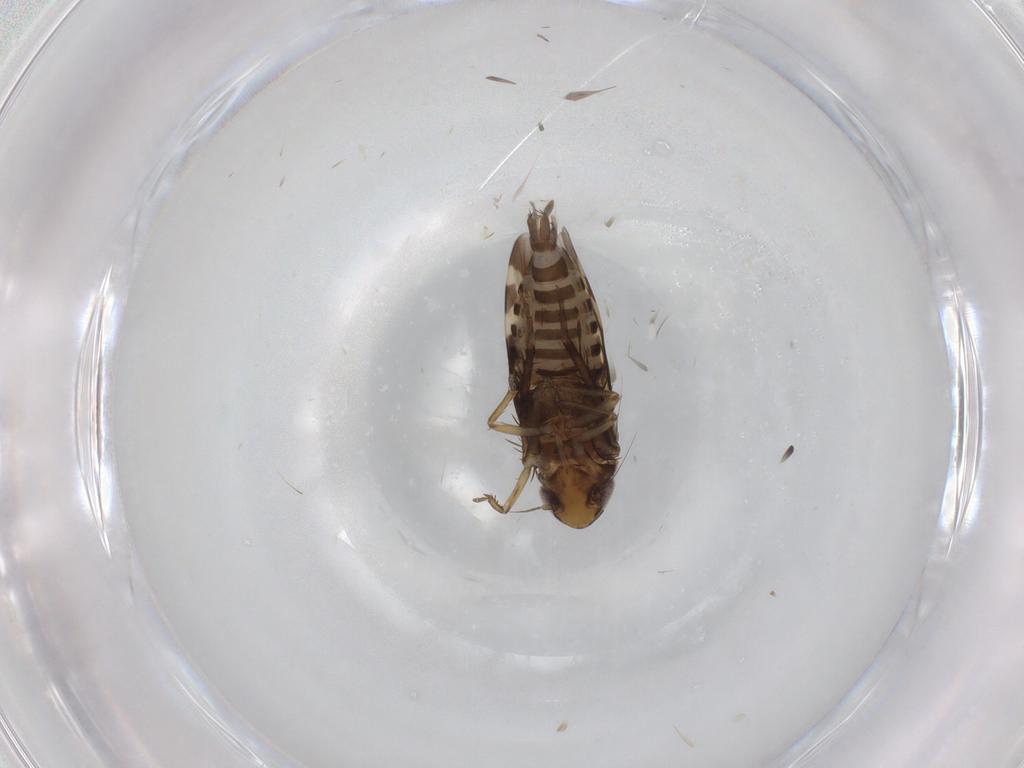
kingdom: Animalia
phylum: Arthropoda
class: Insecta
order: Hemiptera
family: Cicadellidae
